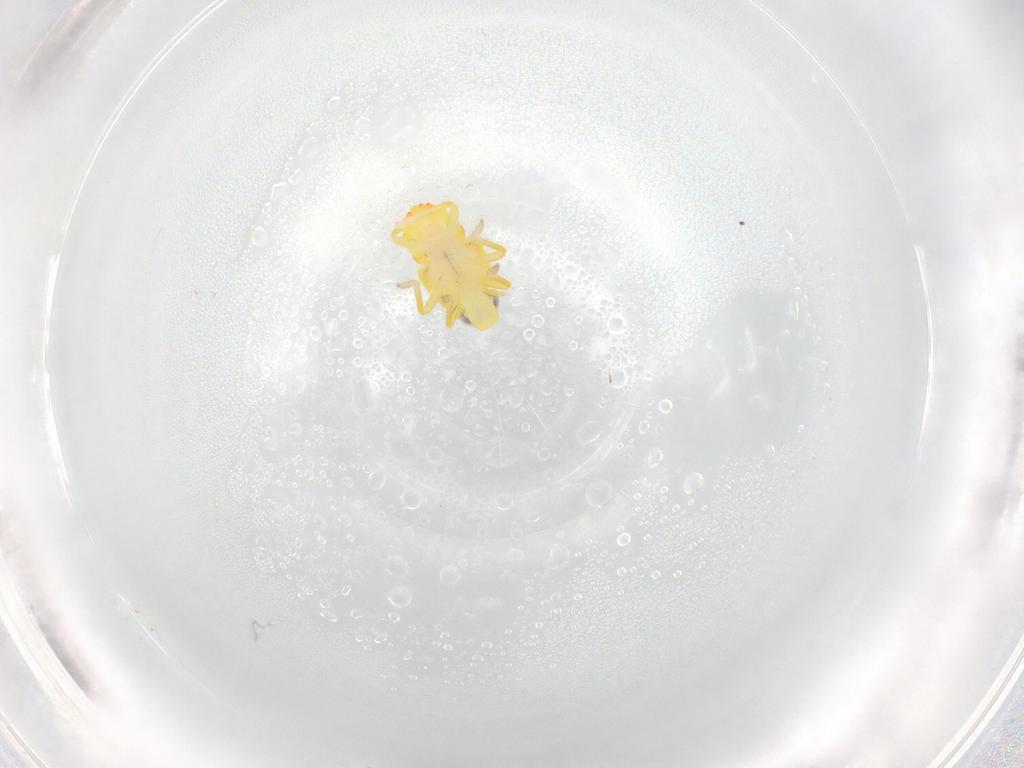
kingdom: Animalia
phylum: Arthropoda
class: Insecta
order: Hemiptera
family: Tropiduchidae
